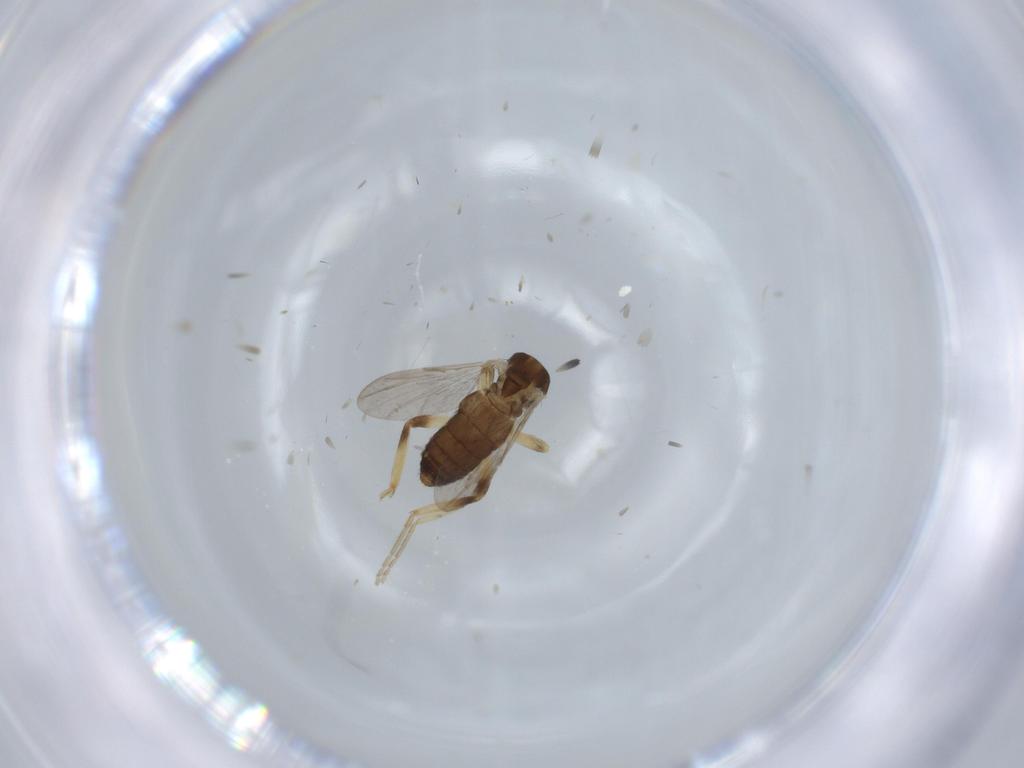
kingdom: Animalia
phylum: Arthropoda
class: Insecta
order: Diptera
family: Ceratopogonidae
